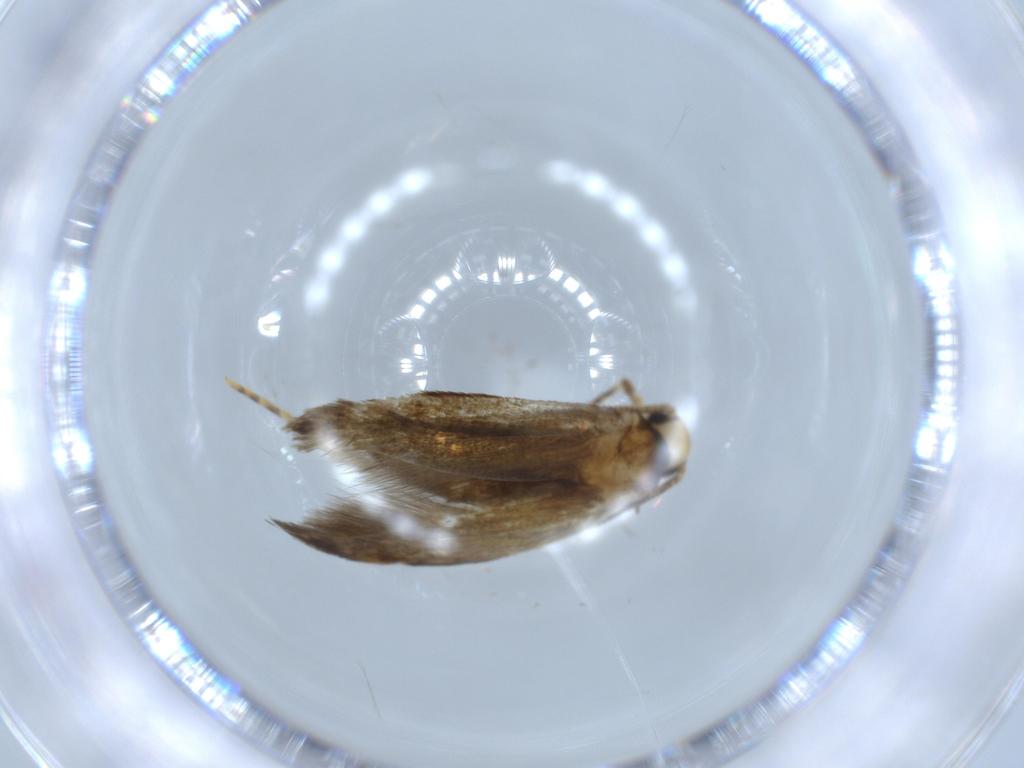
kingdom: Animalia
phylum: Arthropoda
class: Insecta
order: Lepidoptera
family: Tineidae
